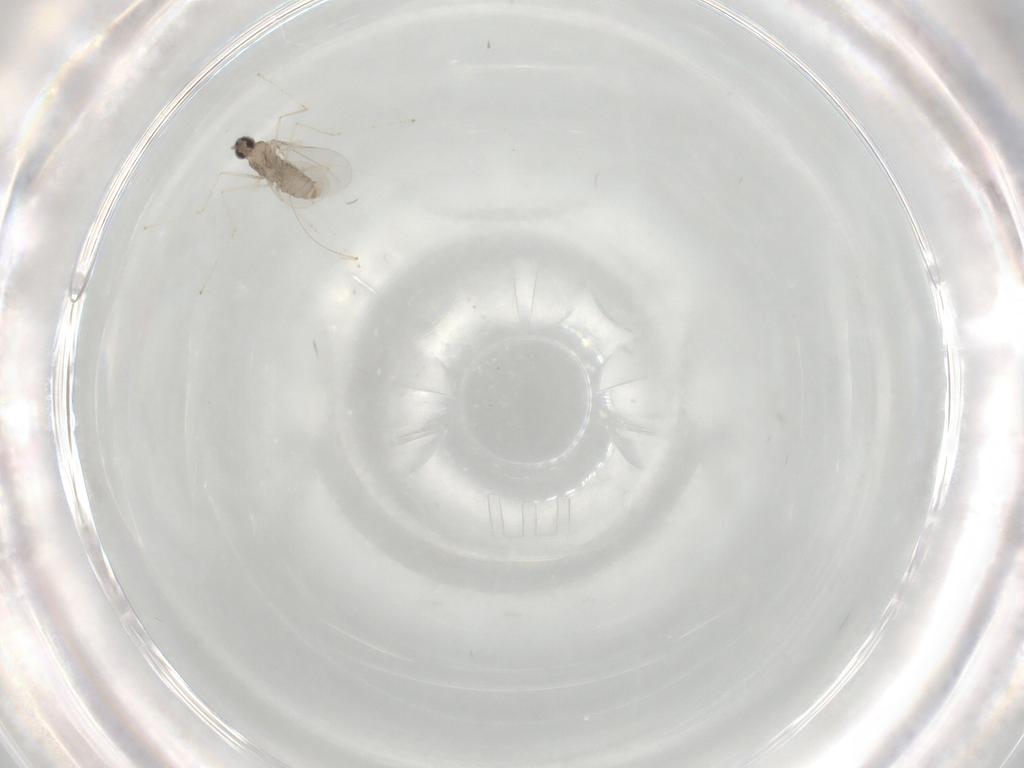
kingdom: Animalia
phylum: Arthropoda
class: Insecta
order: Diptera
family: Cecidomyiidae
